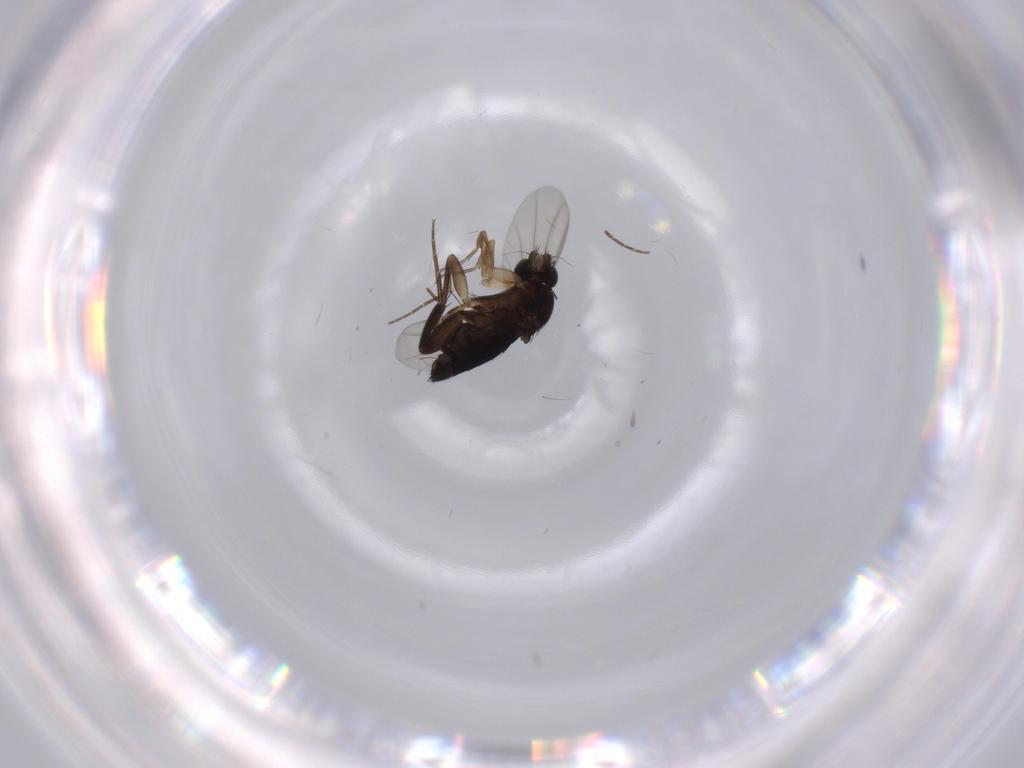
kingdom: Animalia
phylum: Arthropoda
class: Insecta
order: Diptera
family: Phoridae
